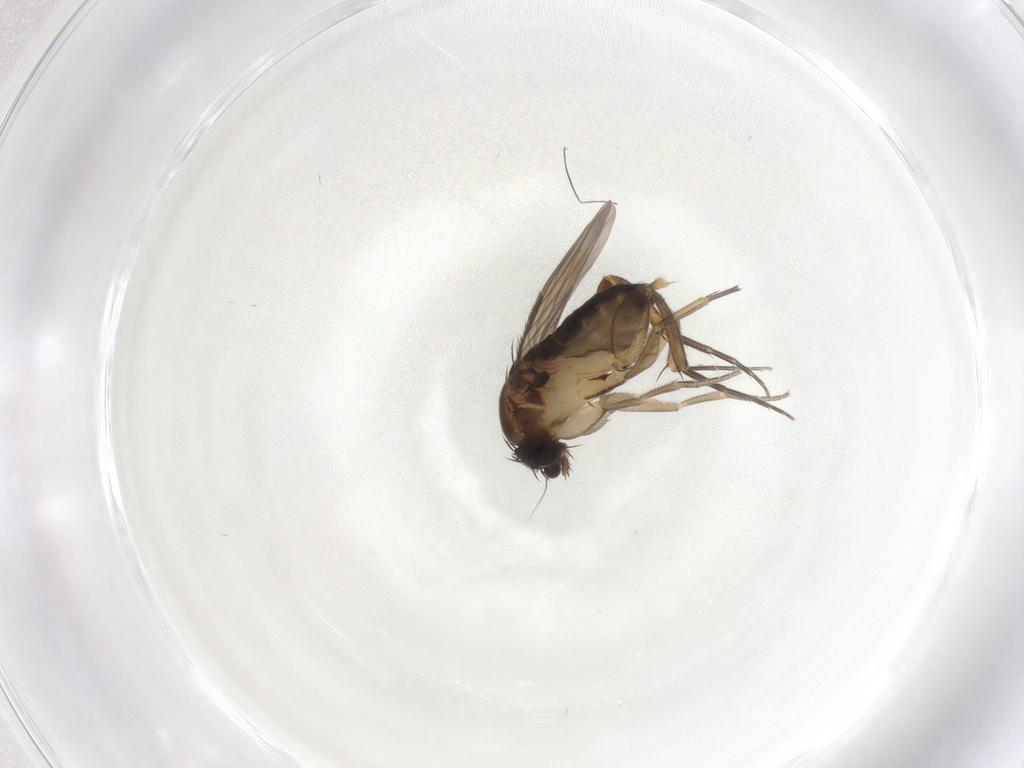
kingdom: Animalia
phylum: Arthropoda
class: Insecta
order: Diptera
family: Phoridae
